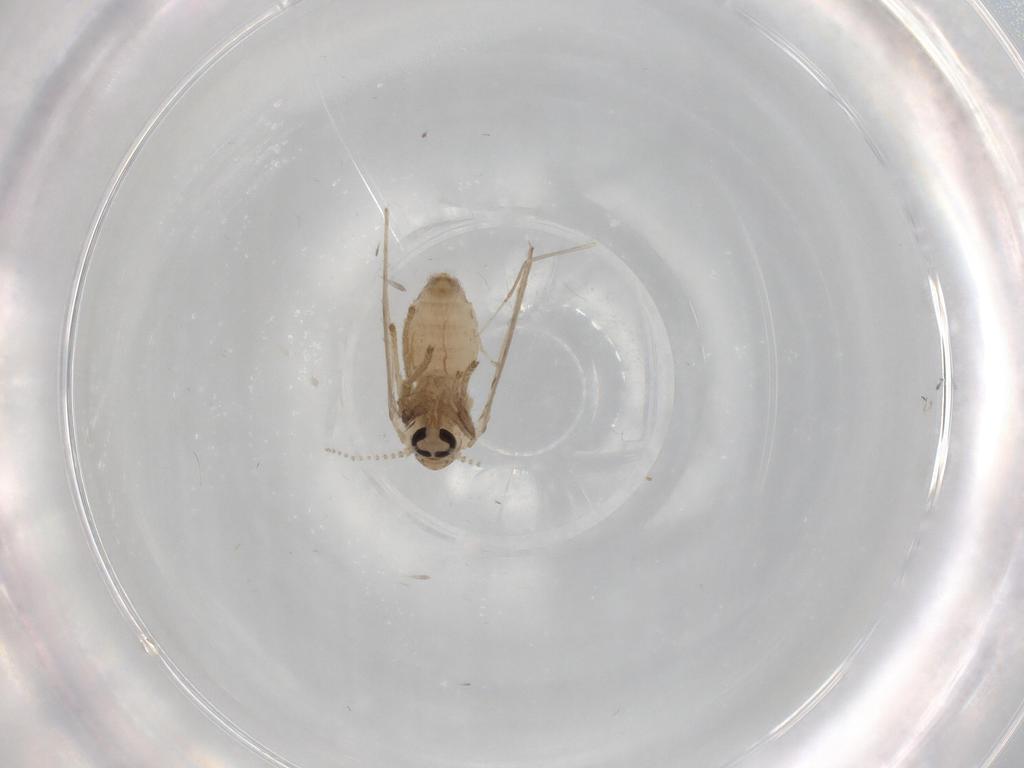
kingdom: Animalia
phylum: Arthropoda
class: Insecta
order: Diptera
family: Psychodidae
